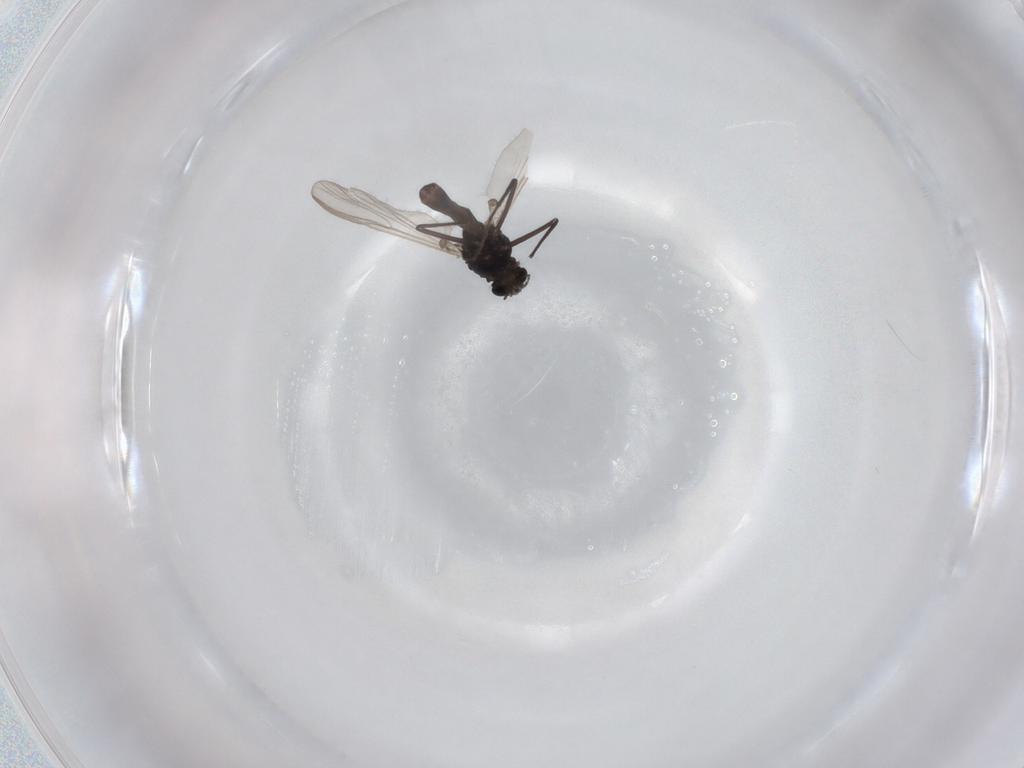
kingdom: Animalia
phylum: Arthropoda
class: Insecta
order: Diptera
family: Chironomidae
